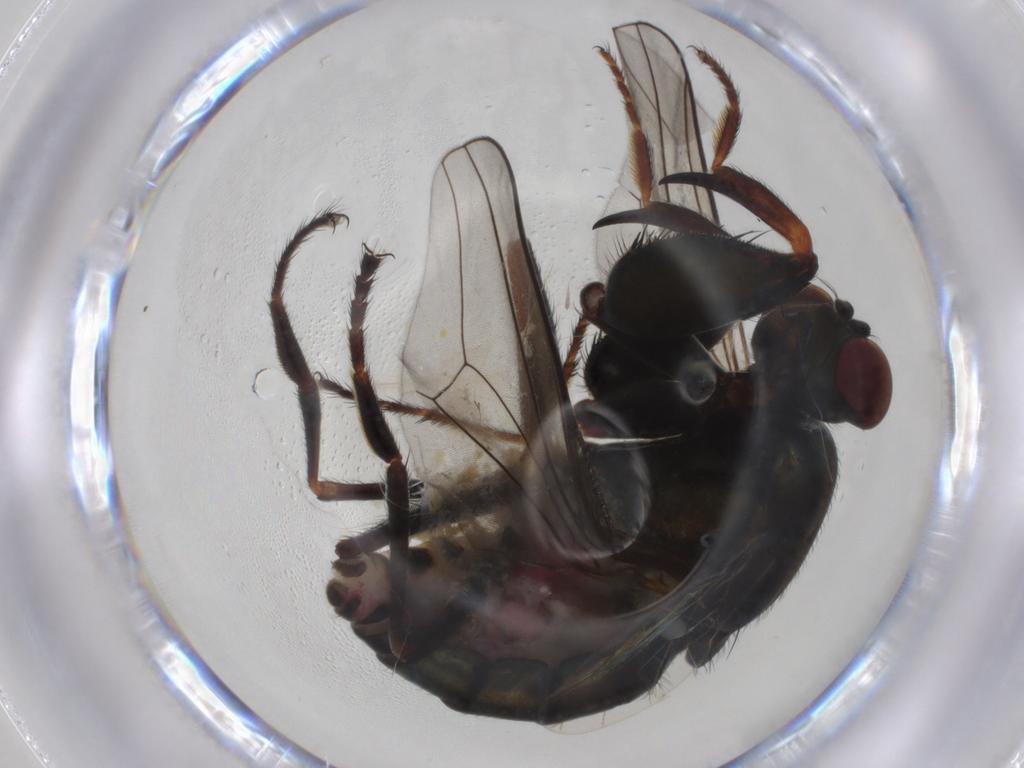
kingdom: Animalia
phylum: Arthropoda
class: Insecta
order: Diptera
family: Ephydridae
